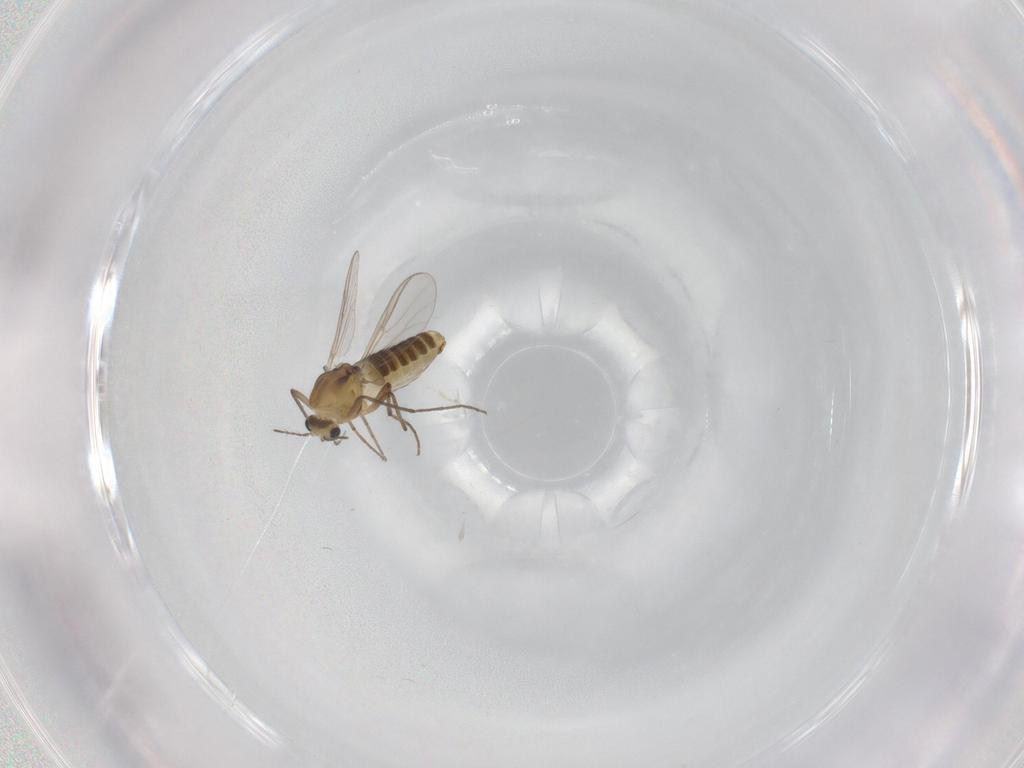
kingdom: Animalia
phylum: Arthropoda
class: Insecta
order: Diptera
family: Chironomidae
